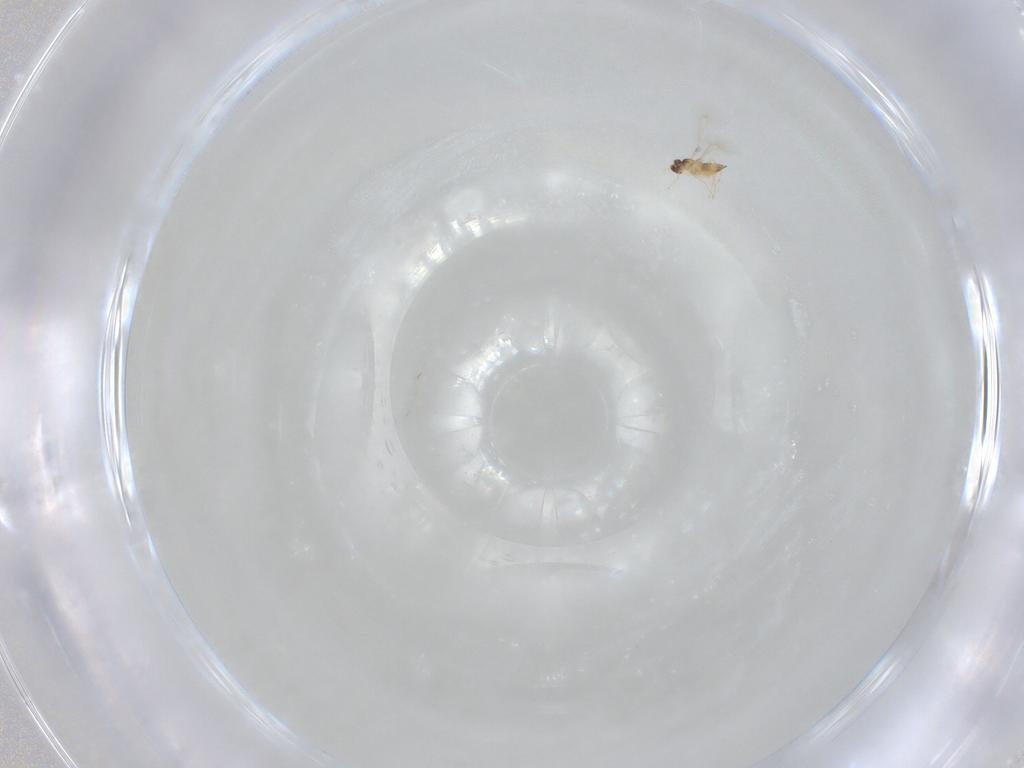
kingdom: Animalia
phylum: Arthropoda
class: Insecta
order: Hymenoptera
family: Mymaridae
